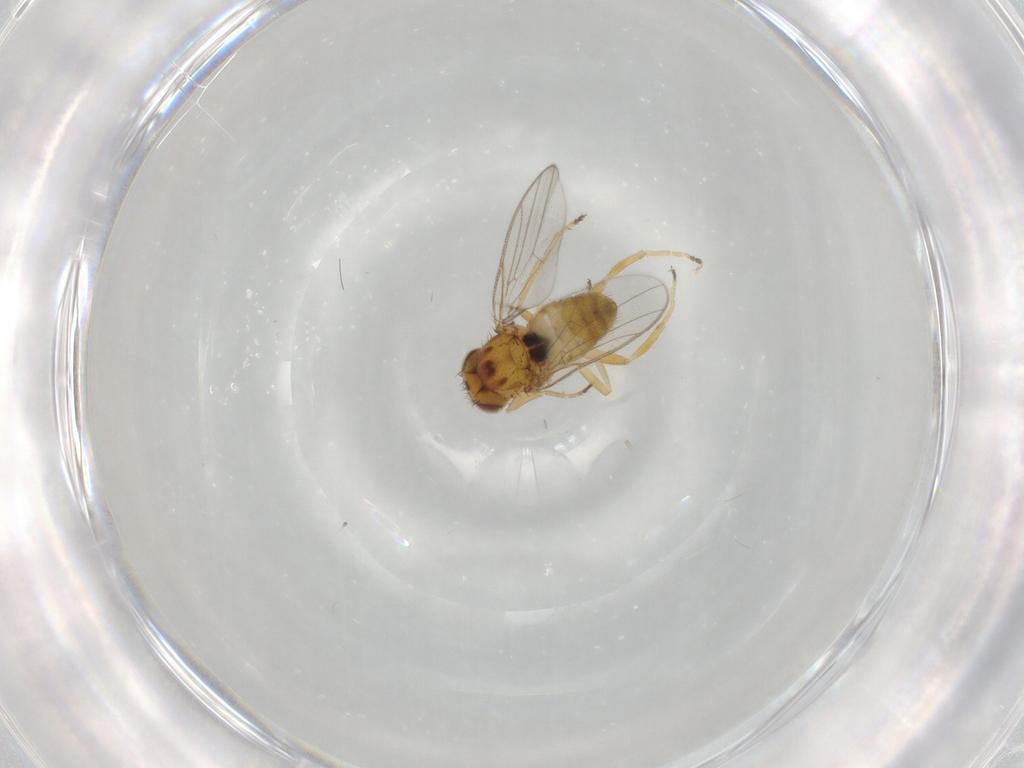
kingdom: Animalia
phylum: Arthropoda
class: Insecta
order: Diptera
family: Chloropidae
